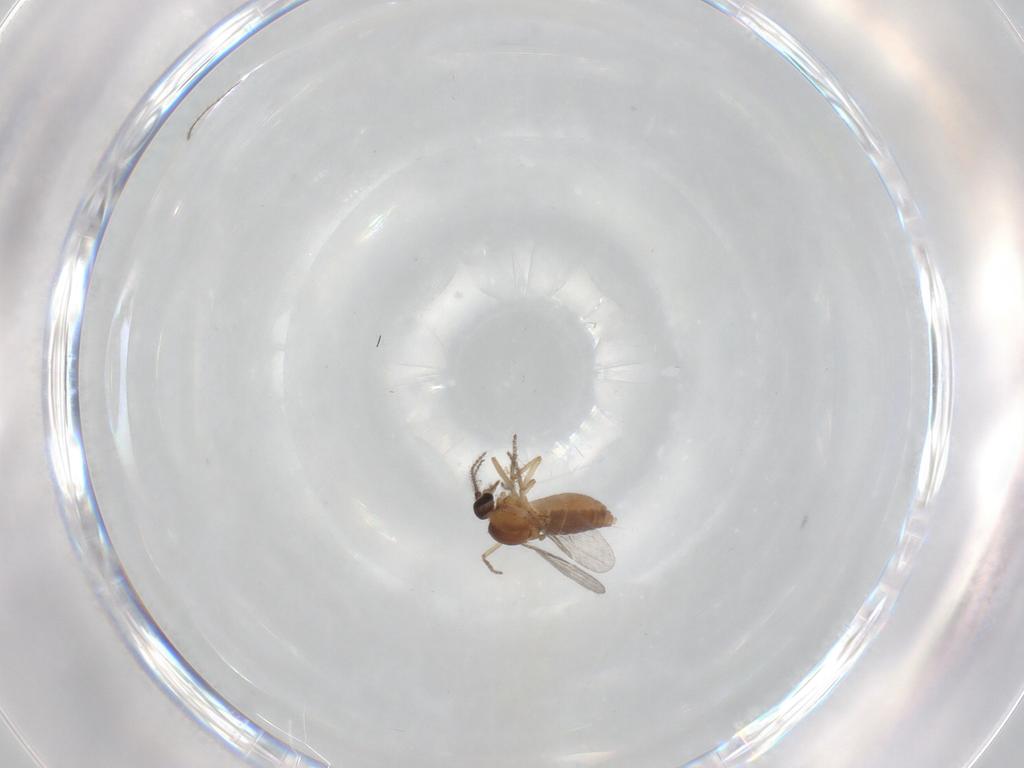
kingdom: Animalia
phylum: Arthropoda
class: Insecta
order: Diptera
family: Ceratopogonidae
